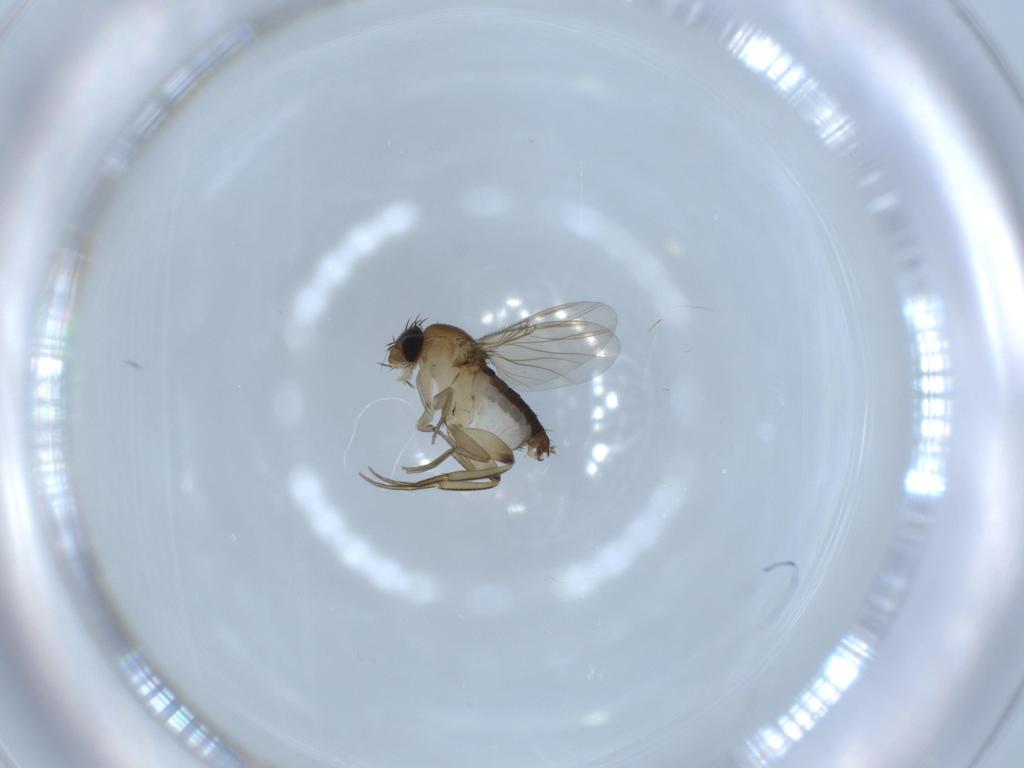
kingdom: Animalia
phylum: Arthropoda
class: Insecta
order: Diptera
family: Phoridae
